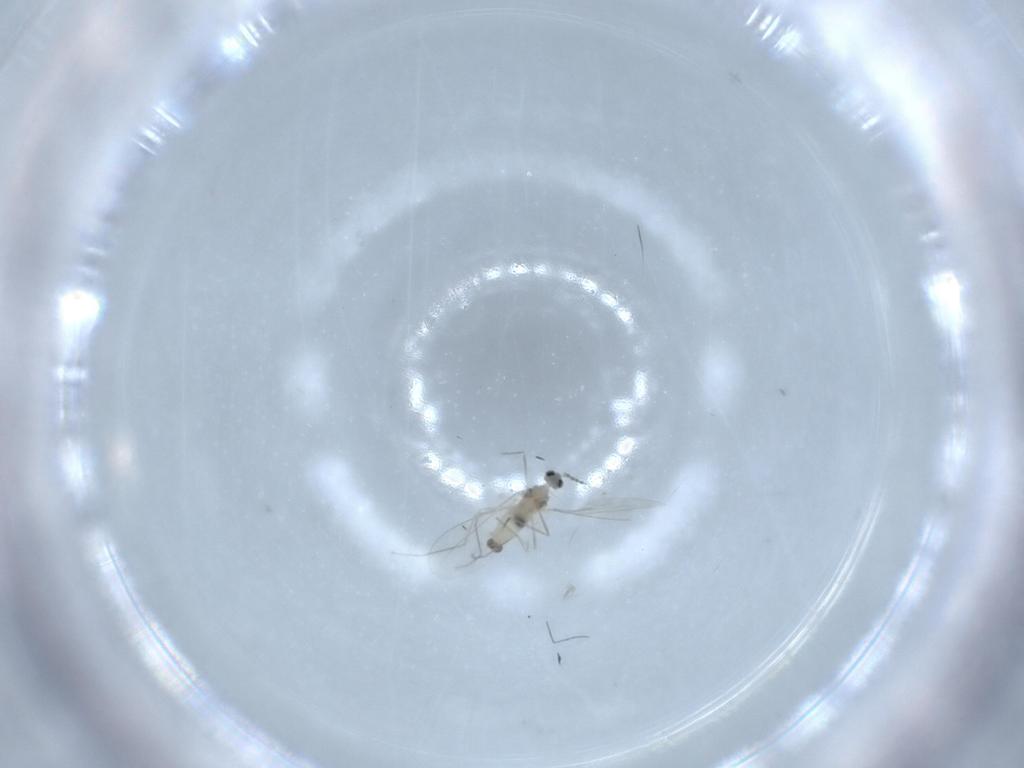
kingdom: Animalia
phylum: Arthropoda
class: Insecta
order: Diptera
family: Cecidomyiidae
